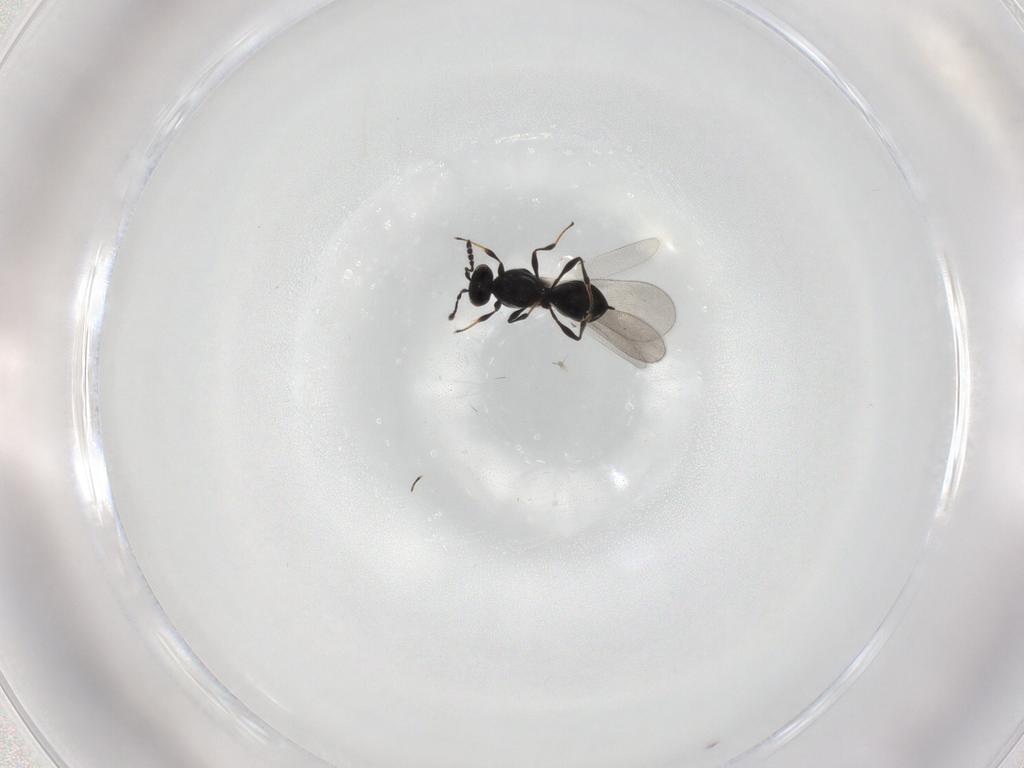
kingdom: Animalia
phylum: Arthropoda
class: Insecta
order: Hymenoptera
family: Platygastridae
